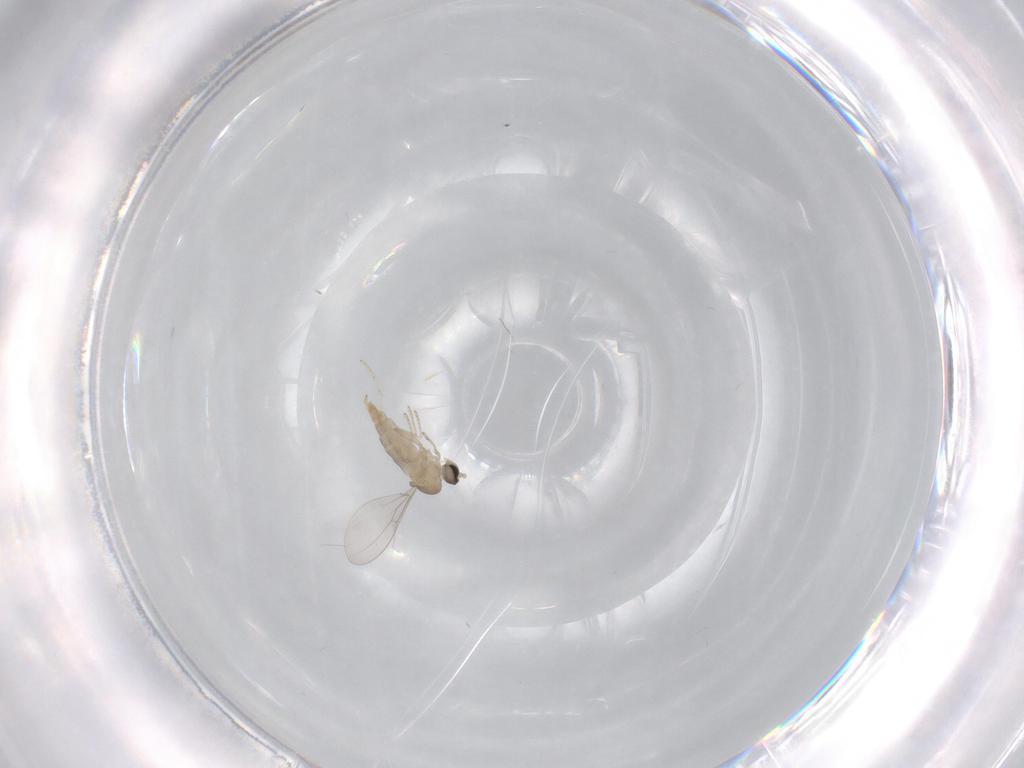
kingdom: Animalia
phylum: Arthropoda
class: Insecta
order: Diptera
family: Cecidomyiidae
